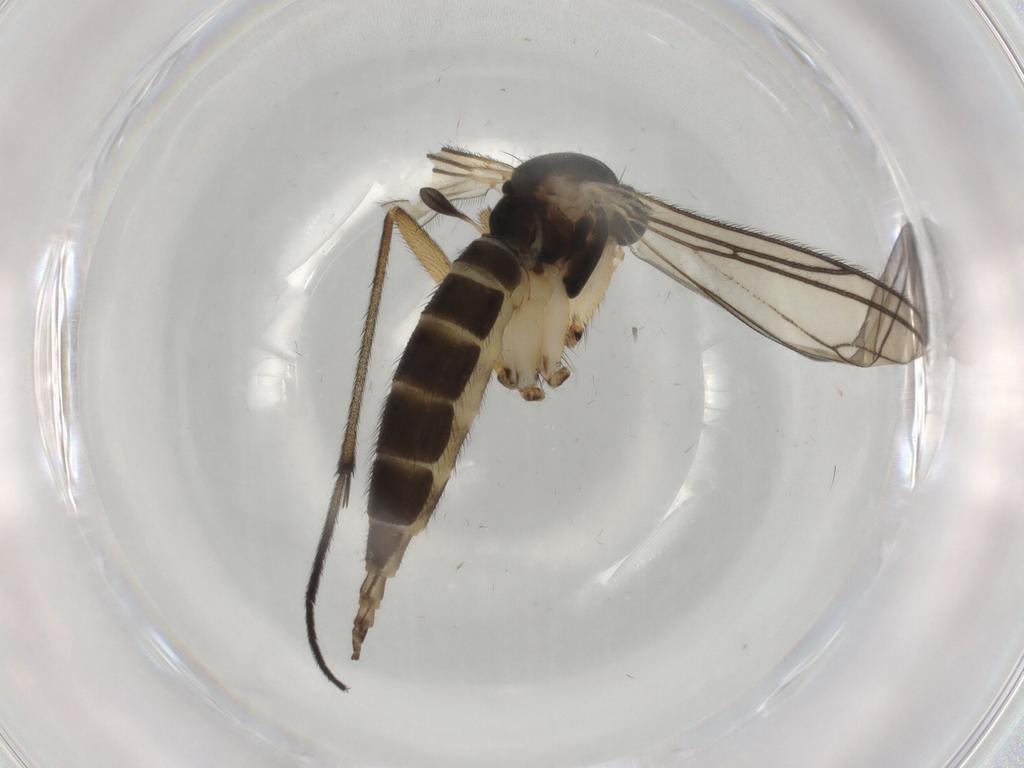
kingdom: Animalia
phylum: Arthropoda
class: Insecta
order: Diptera
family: Sciaridae
